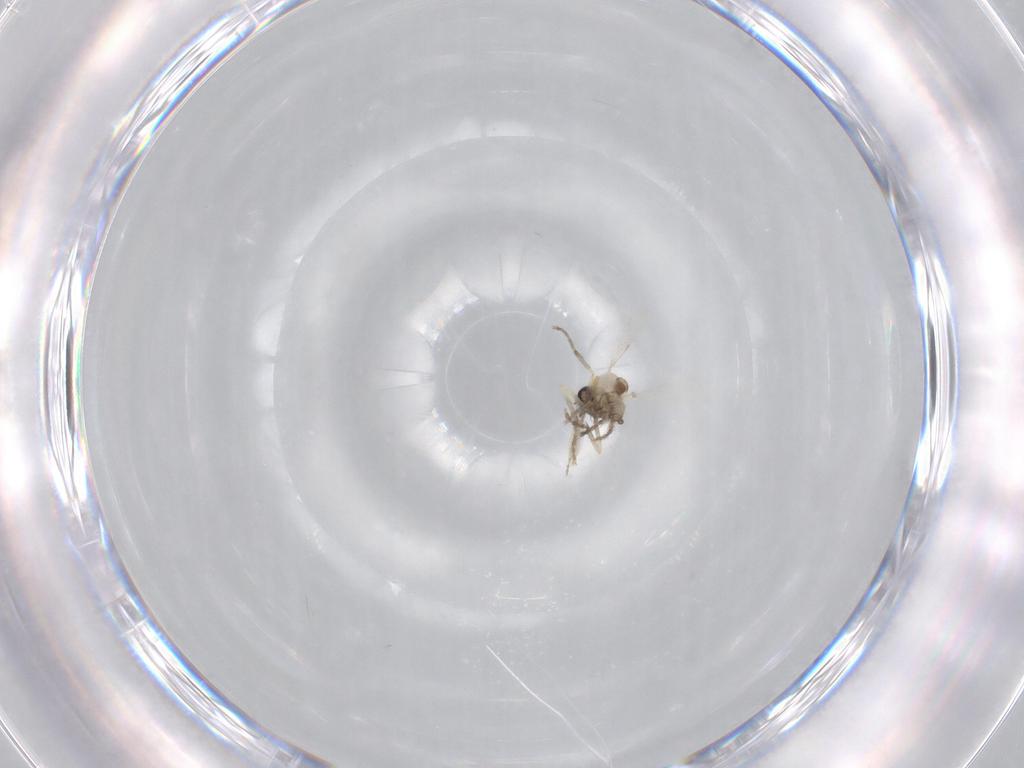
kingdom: Animalia
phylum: Arthropoda
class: Insecta
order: Diptera
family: Ceratopogonidae
